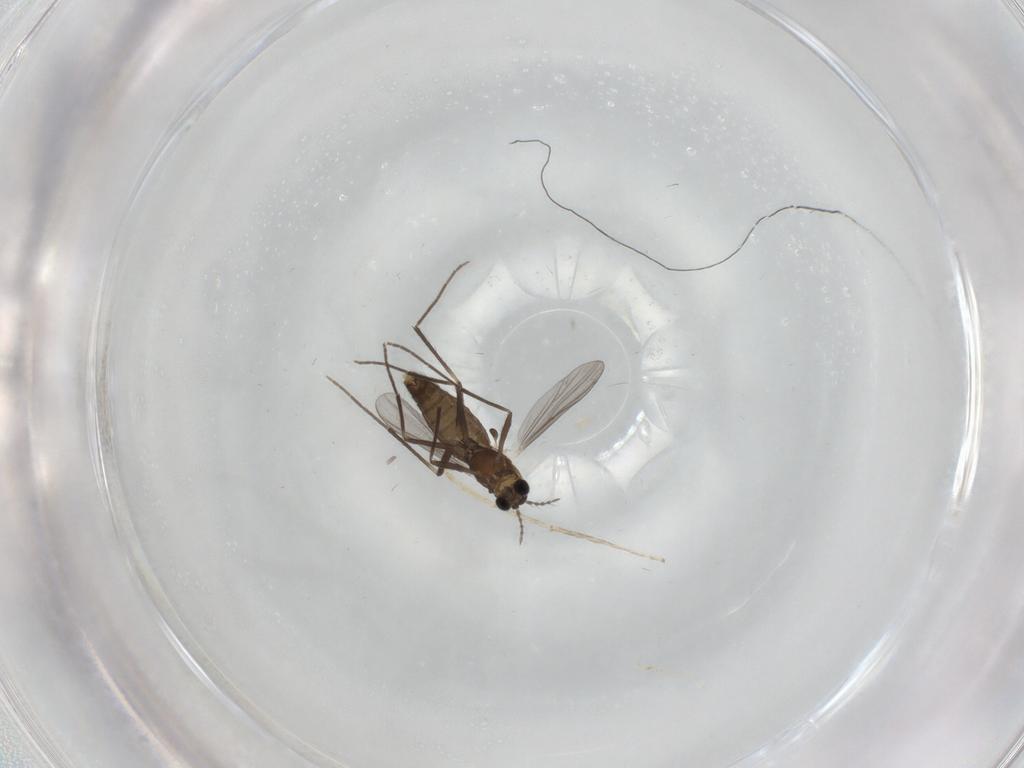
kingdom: Animalia
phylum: Arthropoda
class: Insecta
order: Diptera
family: Chironomidae
